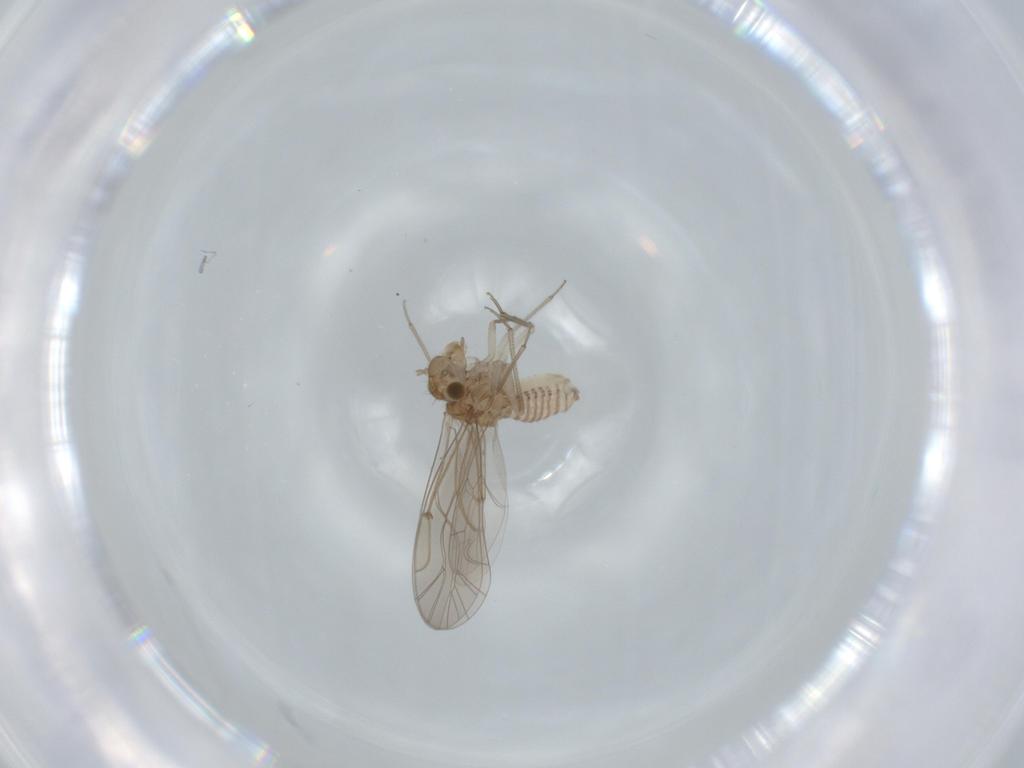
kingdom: Animalia
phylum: Arthropoda
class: Insecta
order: Psocodea
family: Lachesillidae
